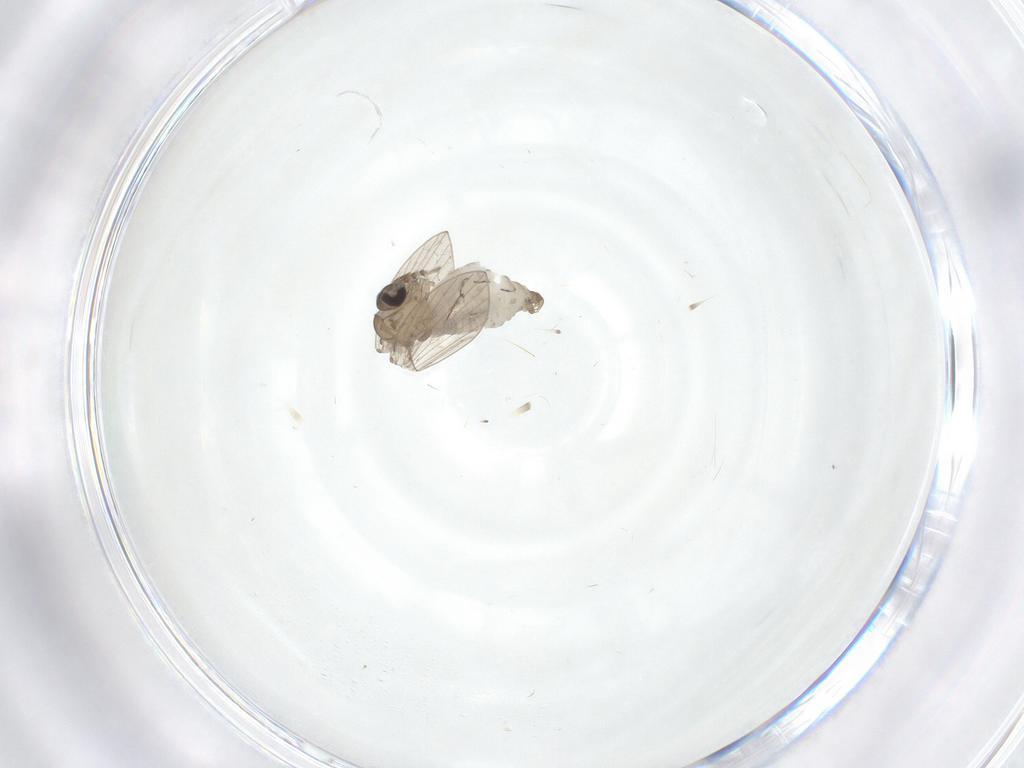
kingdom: Animalia
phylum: Arthropoda
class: Insecta
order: Diptera
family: Psychodidae
